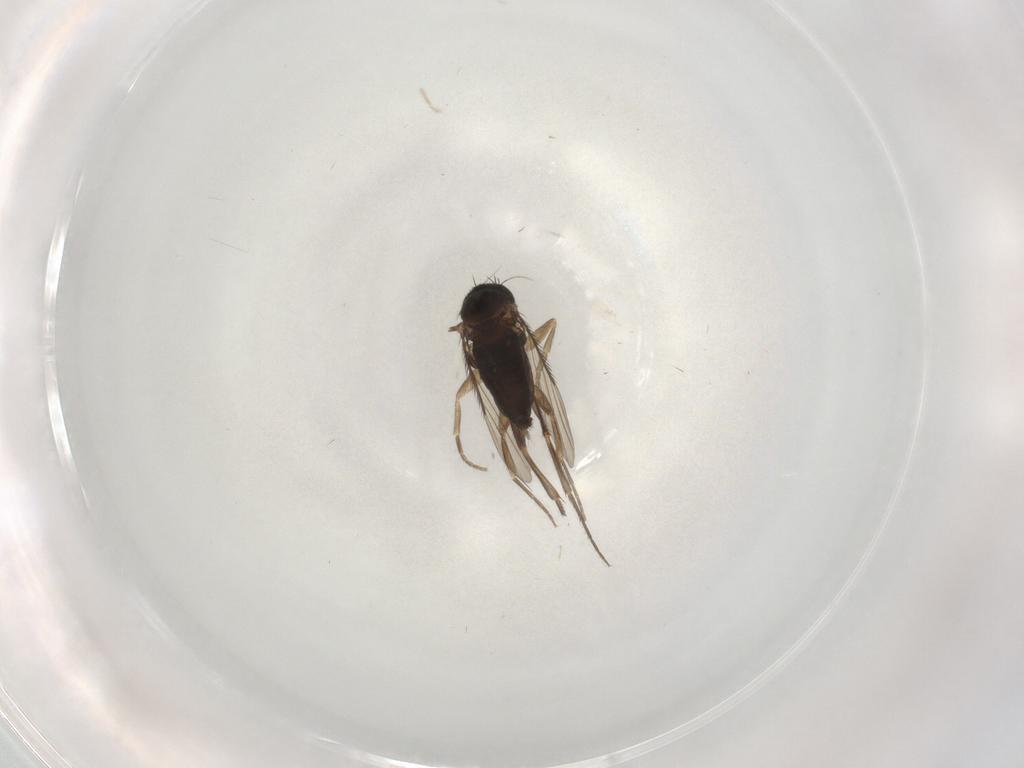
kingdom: Animalia
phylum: Arthropoda
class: Insecta
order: Diptera
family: Phoridae
